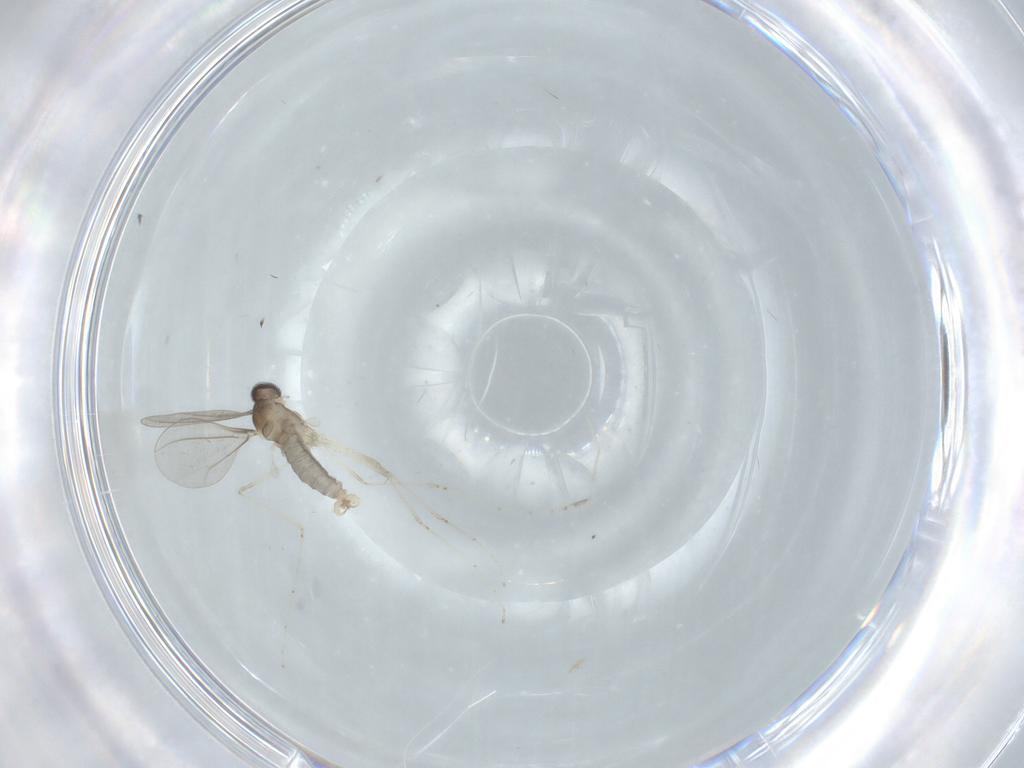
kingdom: Animalia
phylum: Arthropoda
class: Insecta
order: Diptera
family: Cecidomyiidae
